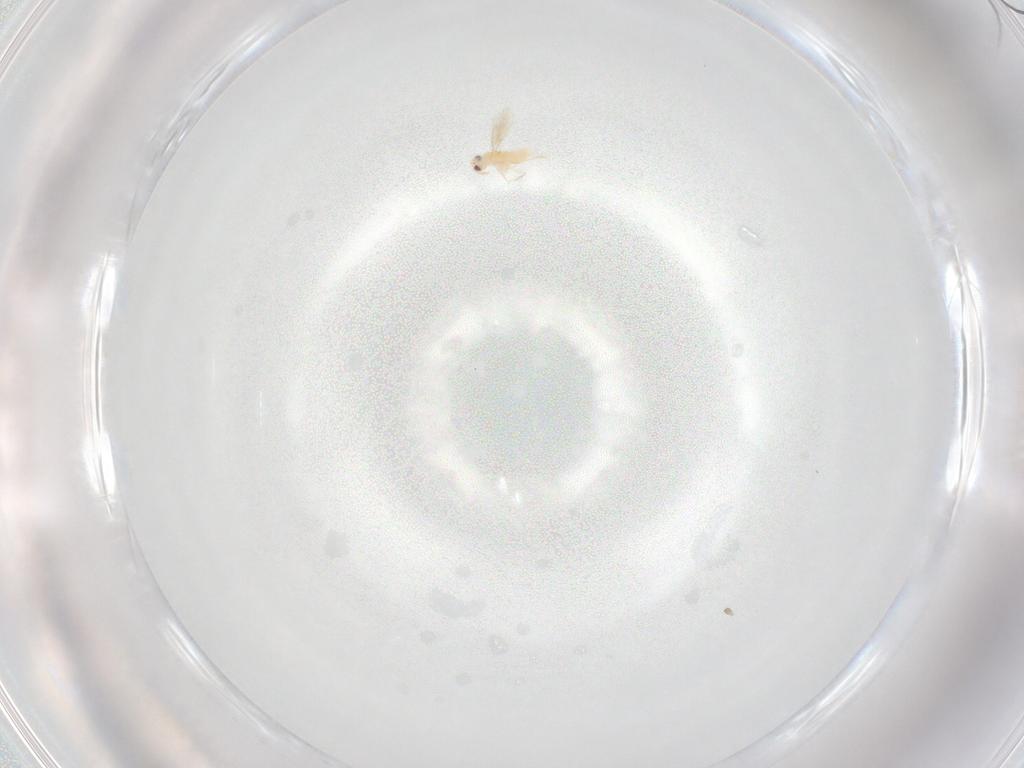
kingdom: Animalia
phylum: Arthropoda
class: Insecta
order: Hymenoptera
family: Aphelinidae
